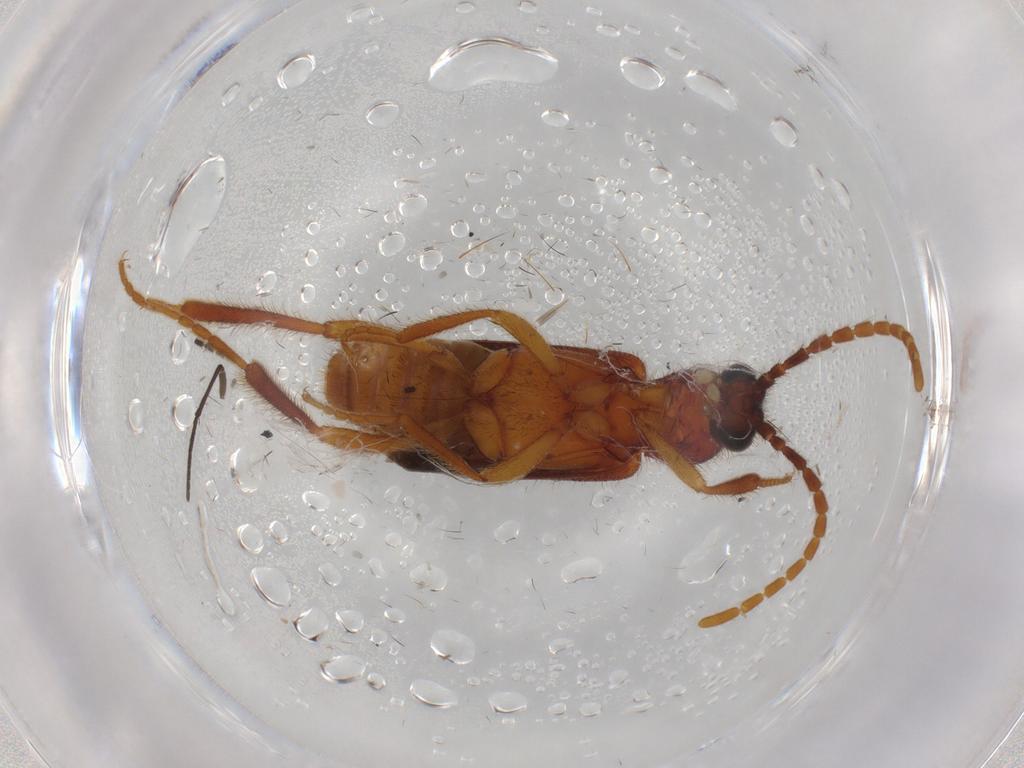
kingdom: Animalia
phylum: Arthropoda
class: Insecta
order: Coleoptera
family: Anthicidae
